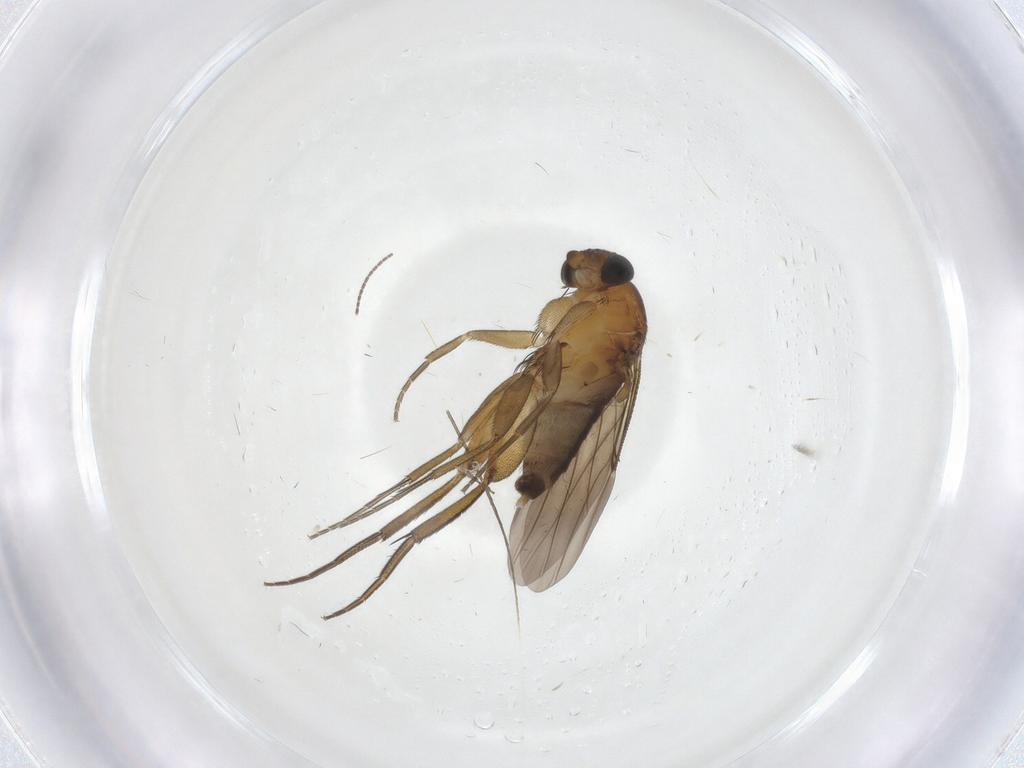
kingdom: Animalia
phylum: Arthropoda
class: Insecta
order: Diptera
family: Phoridae
